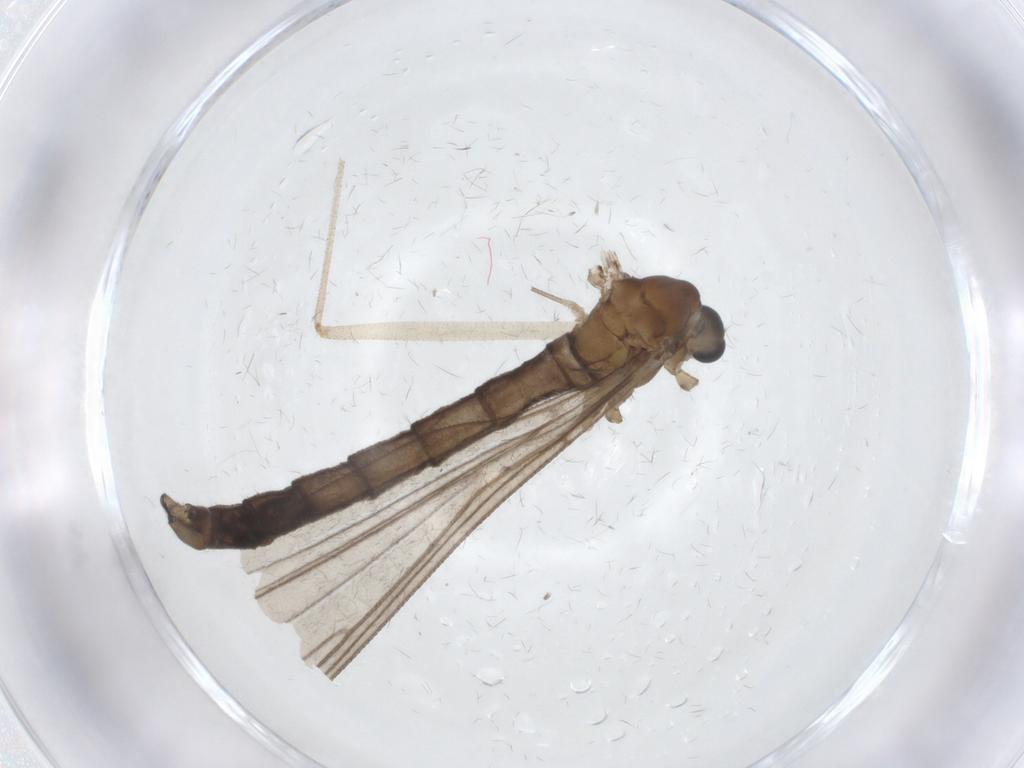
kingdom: Animalia
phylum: Arthropoda
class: Insecta
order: Diptera
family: Limoniidae
